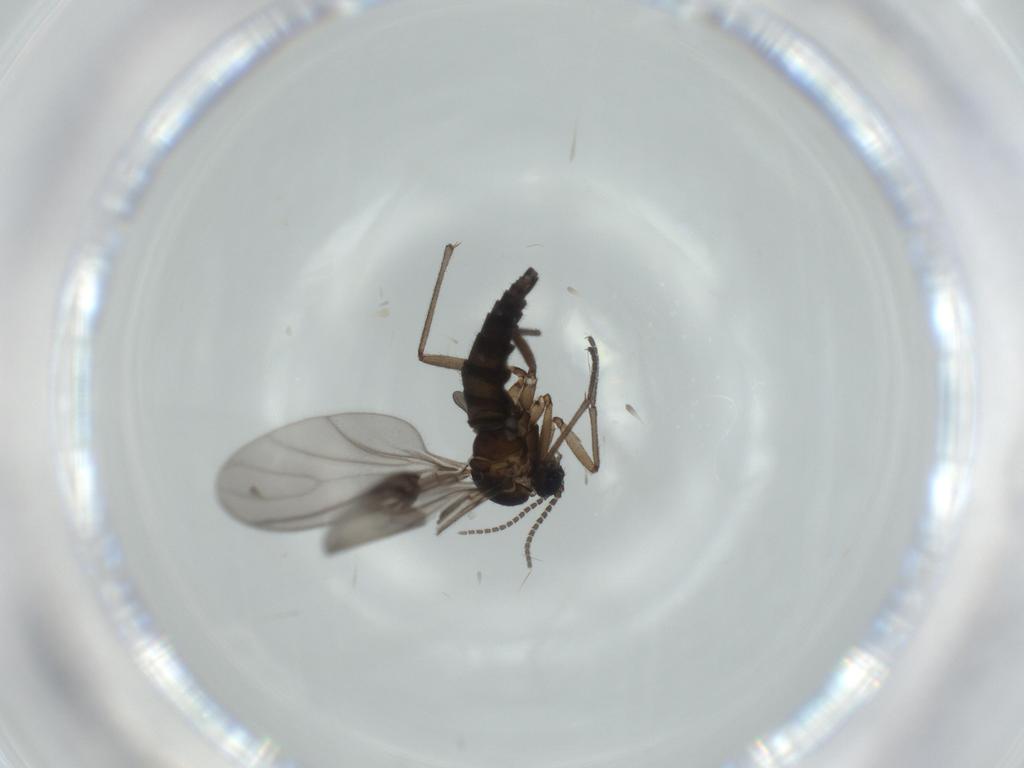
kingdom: Animalia
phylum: Arthropoda
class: Insecta
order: Diptera
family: Sciaridae
